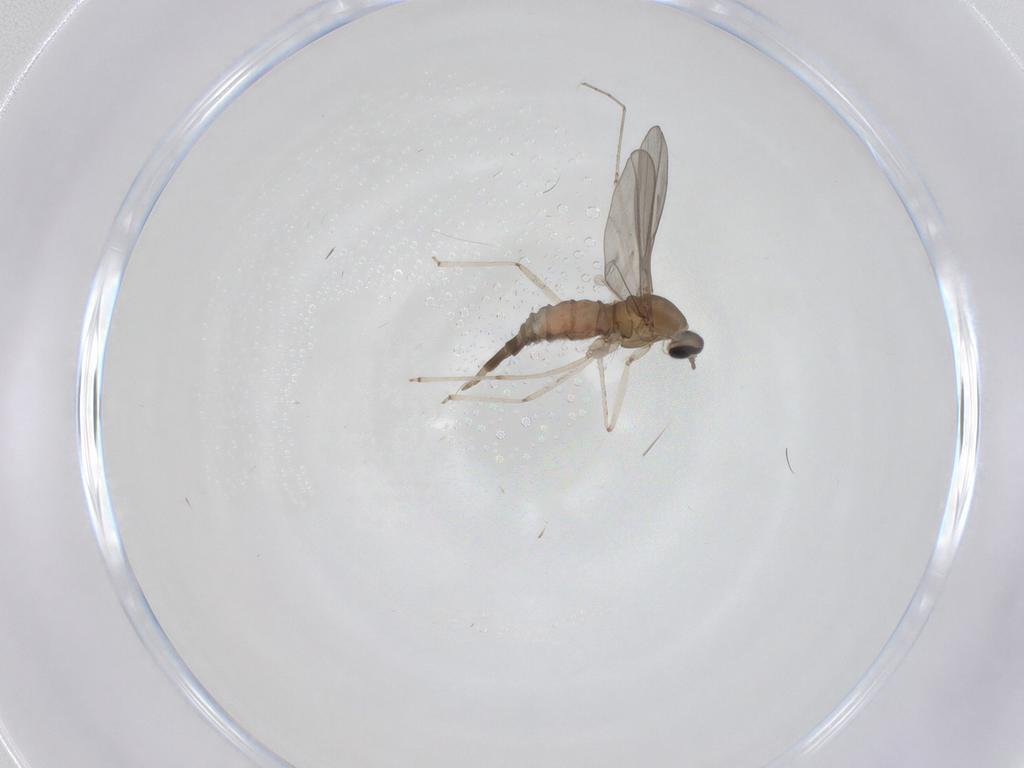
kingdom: Animalia
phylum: Arthropoda
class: Insecta
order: Diptera
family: Cecidomyiidae
